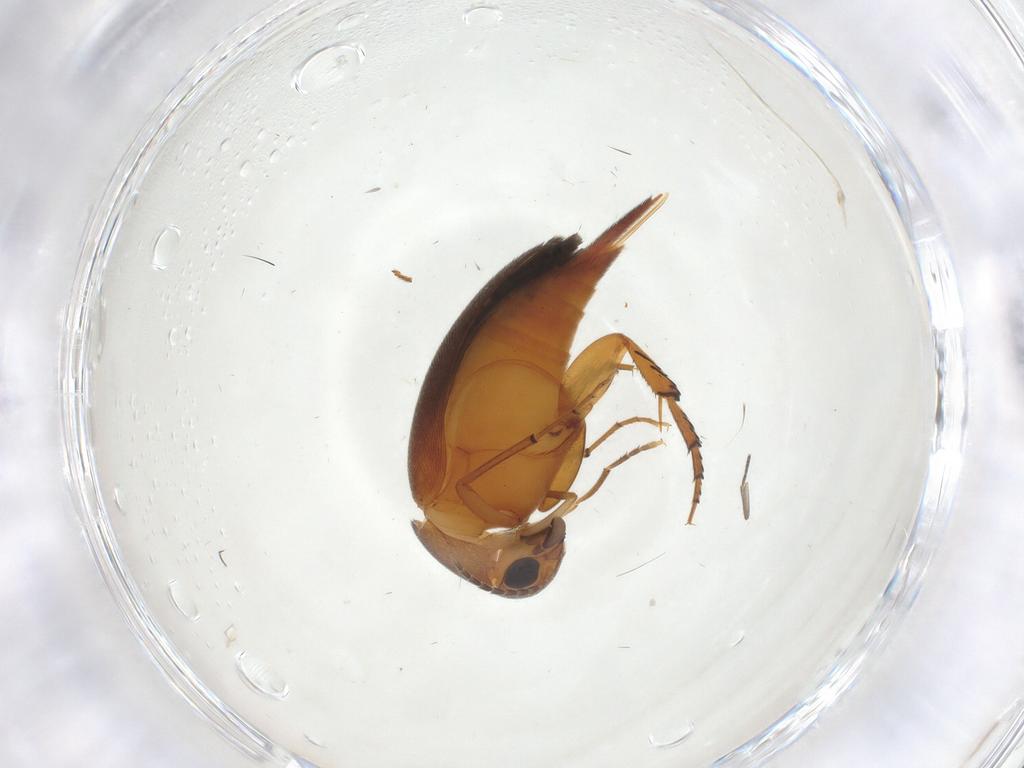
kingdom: Animalia
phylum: Arthropoda
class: Insecta
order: Coleoptera
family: Mordellidae
